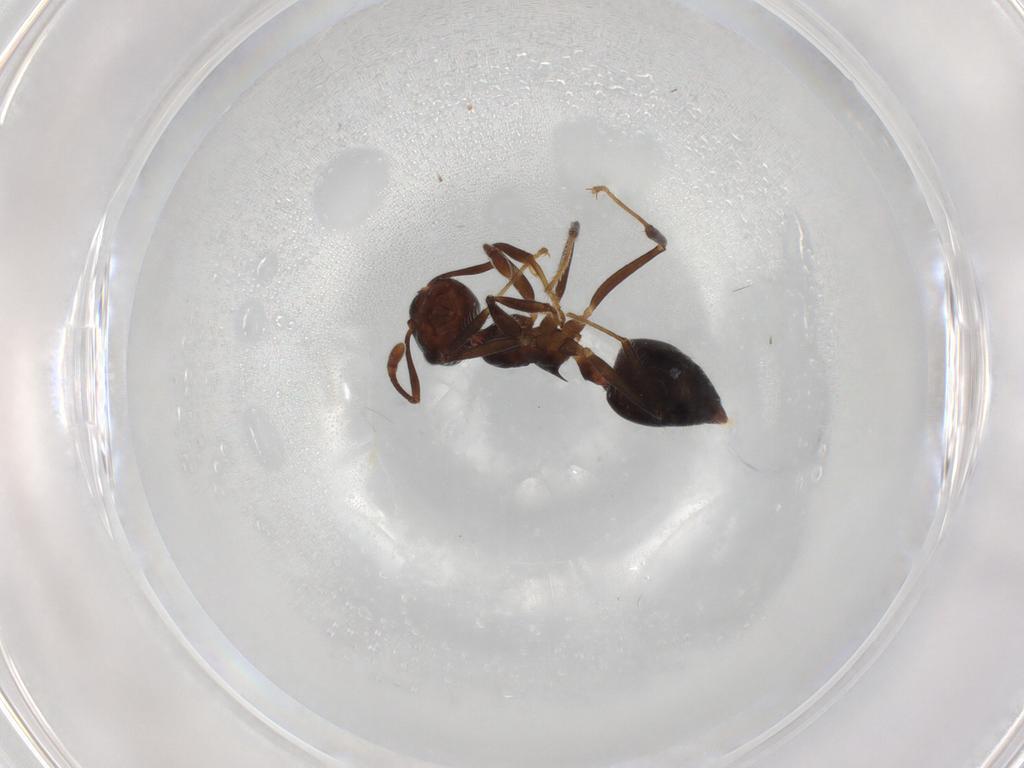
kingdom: Animalia
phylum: Arthropoda
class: Insecta
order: Hymenoptera
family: Formicidae
